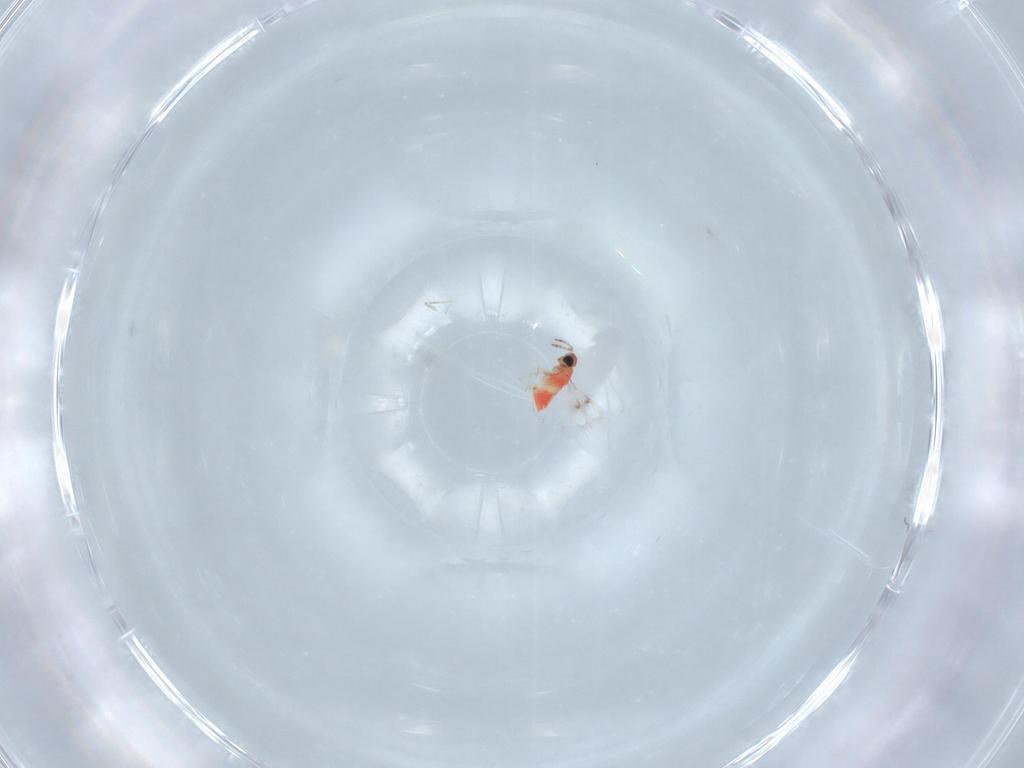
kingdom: Animalia
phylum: Arthropoda
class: Insecta
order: Hymenoptera
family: Trichogrammatidae
